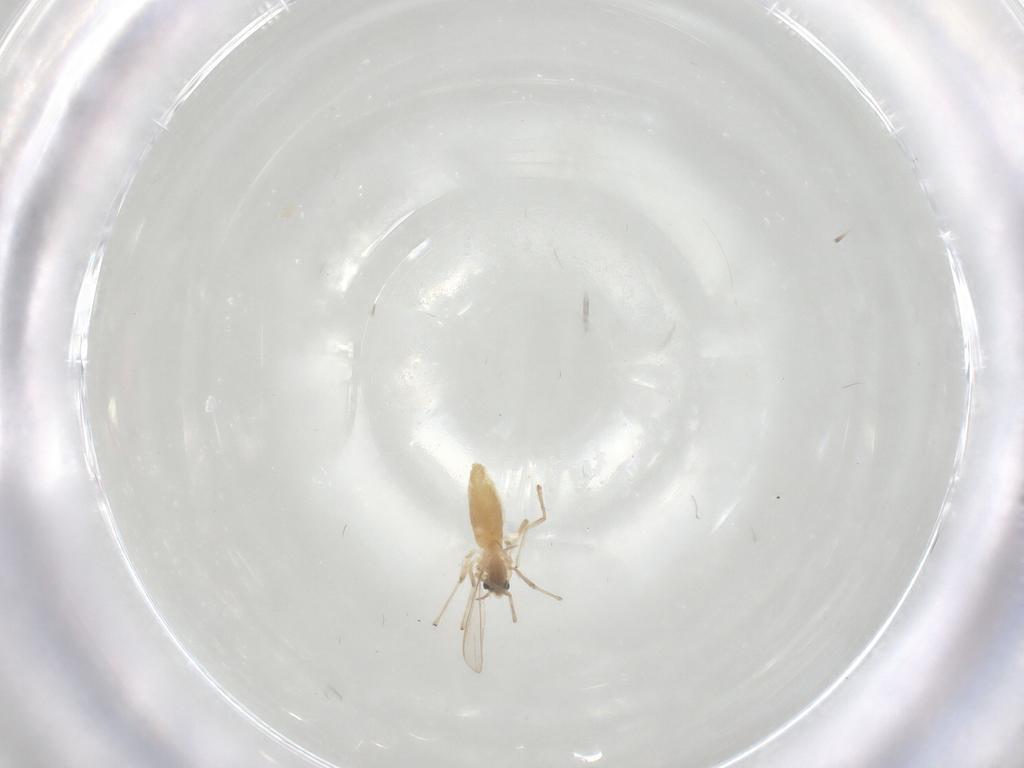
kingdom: Animalia
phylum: Arthropoda
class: Insecta
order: Diptera
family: Chironomidae
